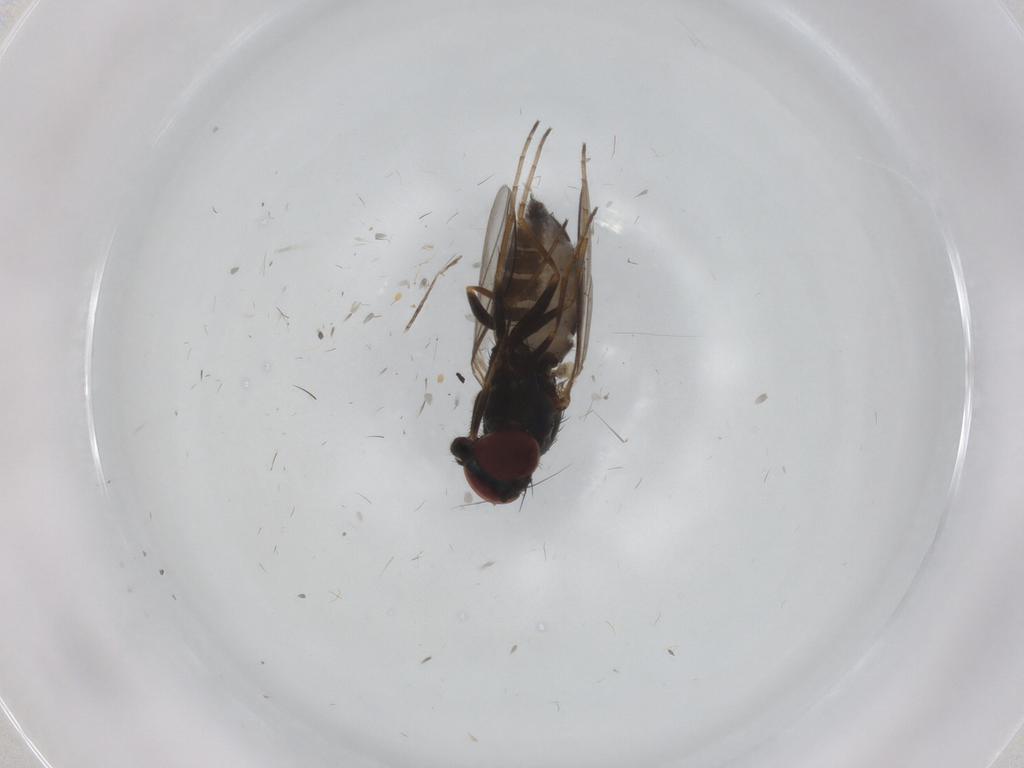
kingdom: Animalia
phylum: Arthropoda
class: Insecta
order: Diptera
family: Dolichopodidae
